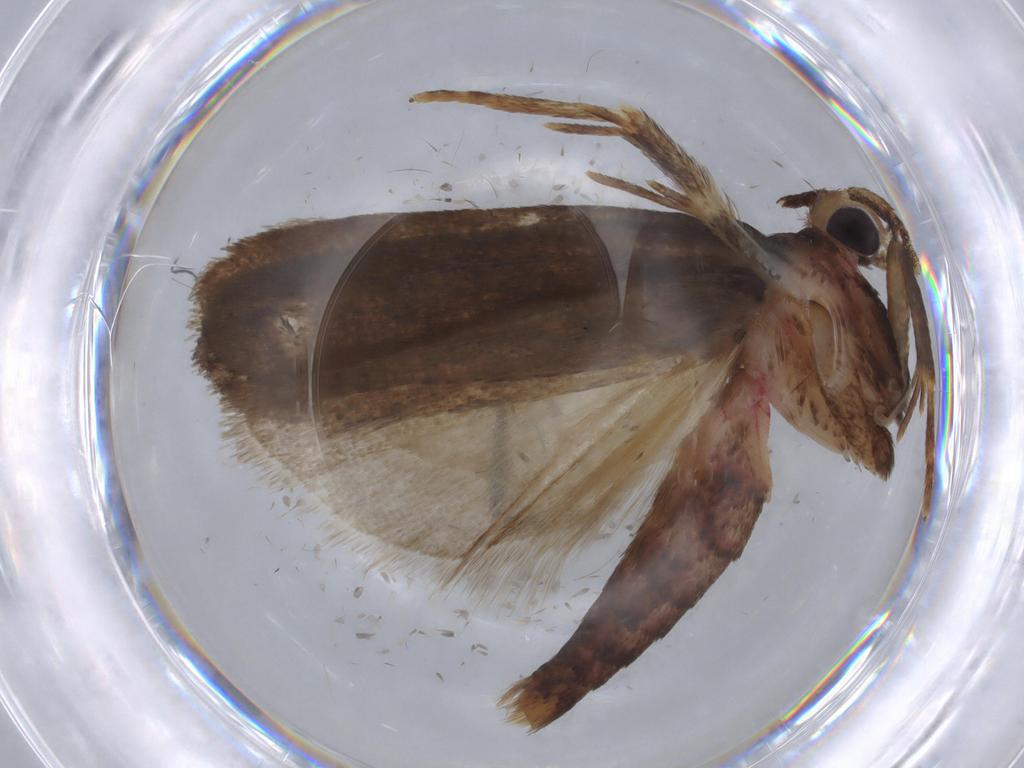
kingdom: Animalia
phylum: Arthropoda
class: Insecta
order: Lepidoptera
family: Autostichidae
